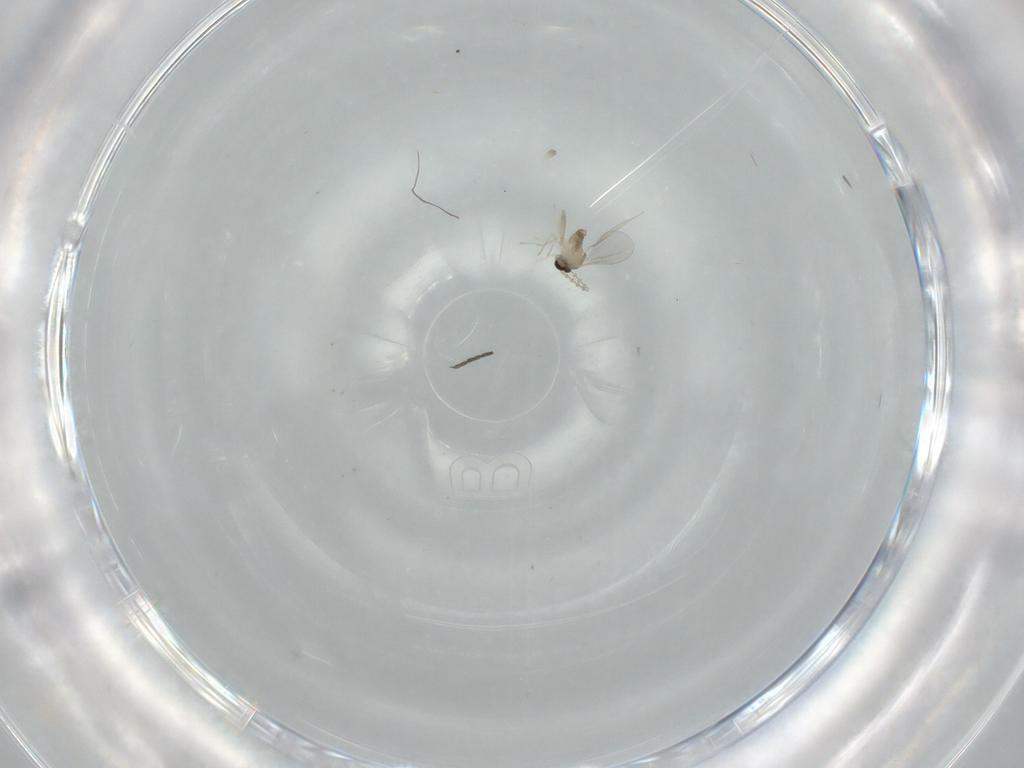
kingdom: Animalia
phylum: Arthropoda
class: Insecta
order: Diptera
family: Cecidomyiidae
